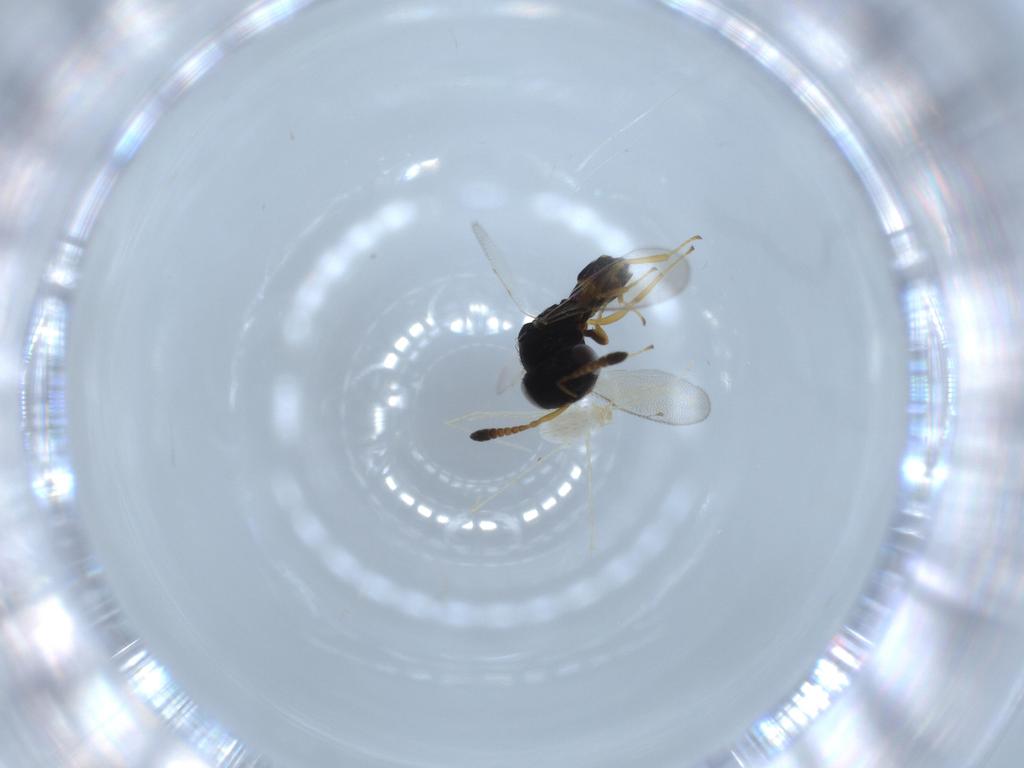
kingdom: Animalia
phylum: Arthropoda
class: Insecta
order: Hymenoptera
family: Pteromalidae
